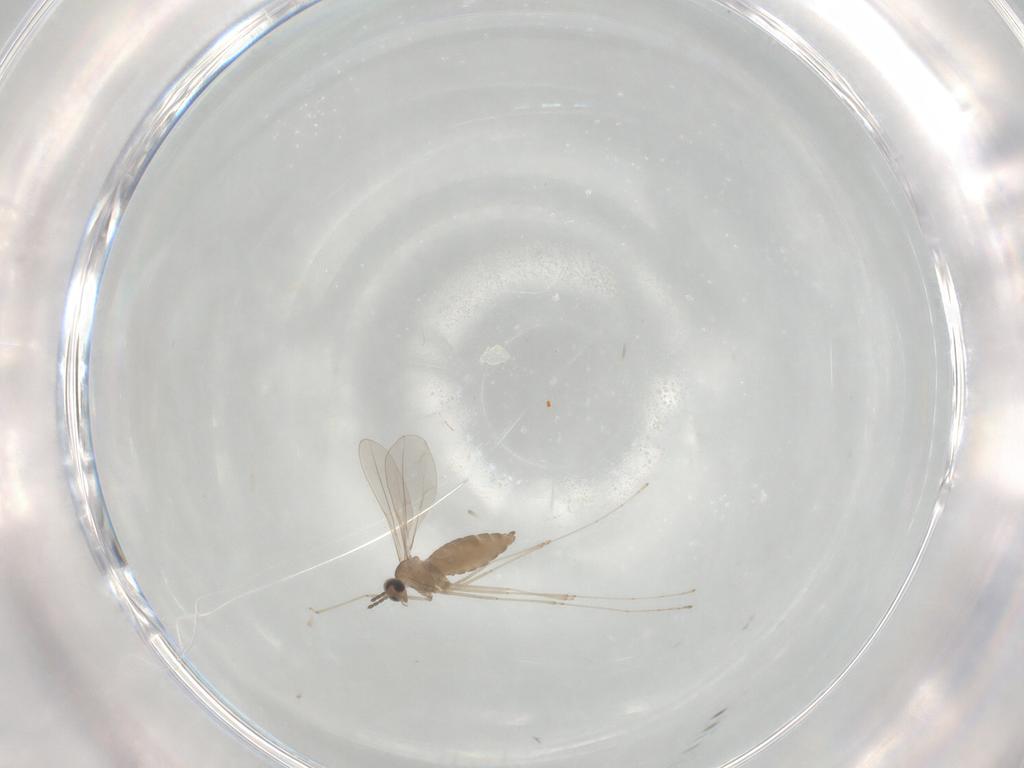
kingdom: Animalia
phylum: Arthropoda
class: Insecta
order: Diptera
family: Cecidomyiidae
